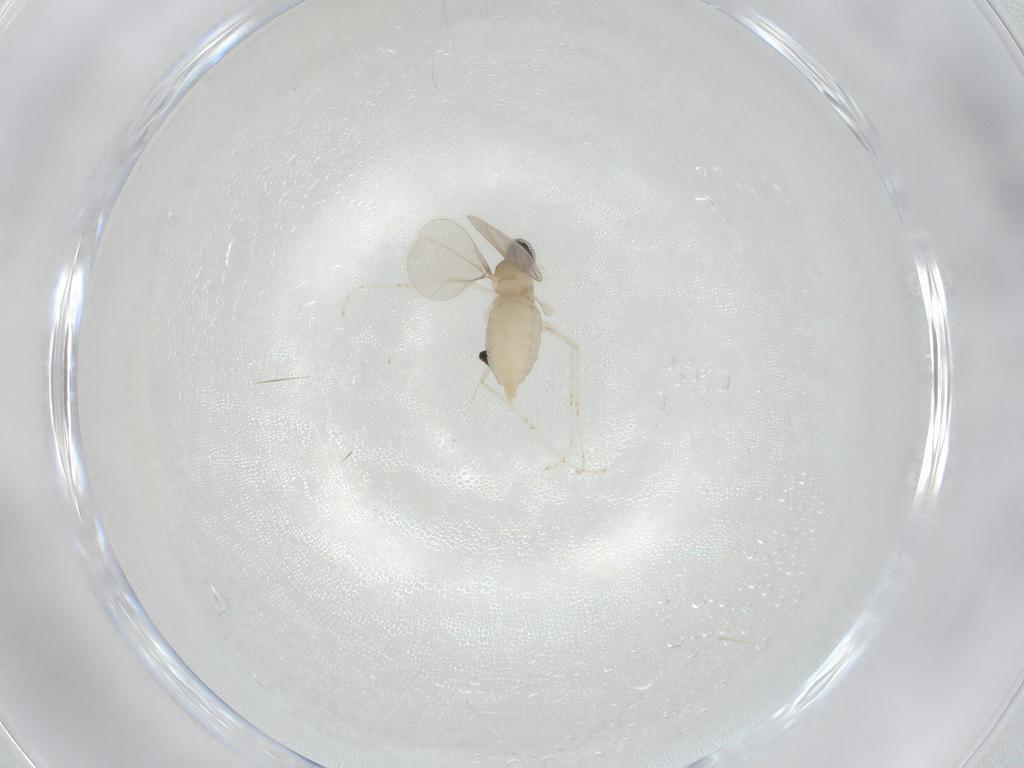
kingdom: Animalia
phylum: Arthropoda
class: Insecta
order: Diptera
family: Cecidomyiidae
